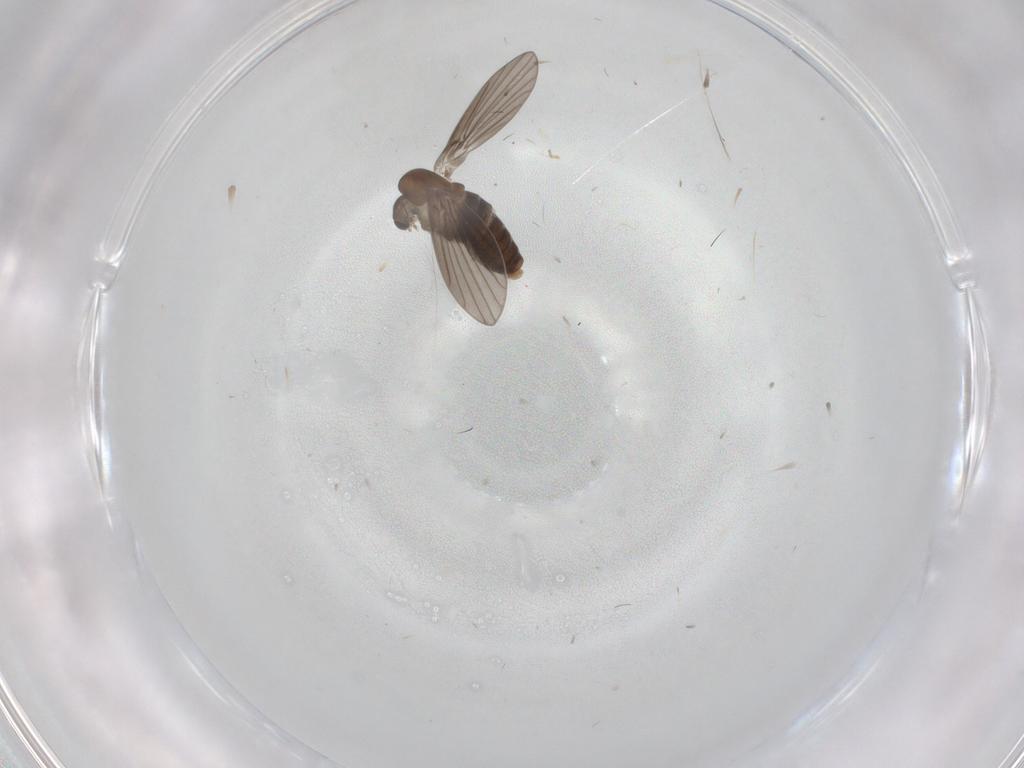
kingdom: Animalia
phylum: Arthropoda
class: Insecta
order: Diptera
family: Psychodidae
